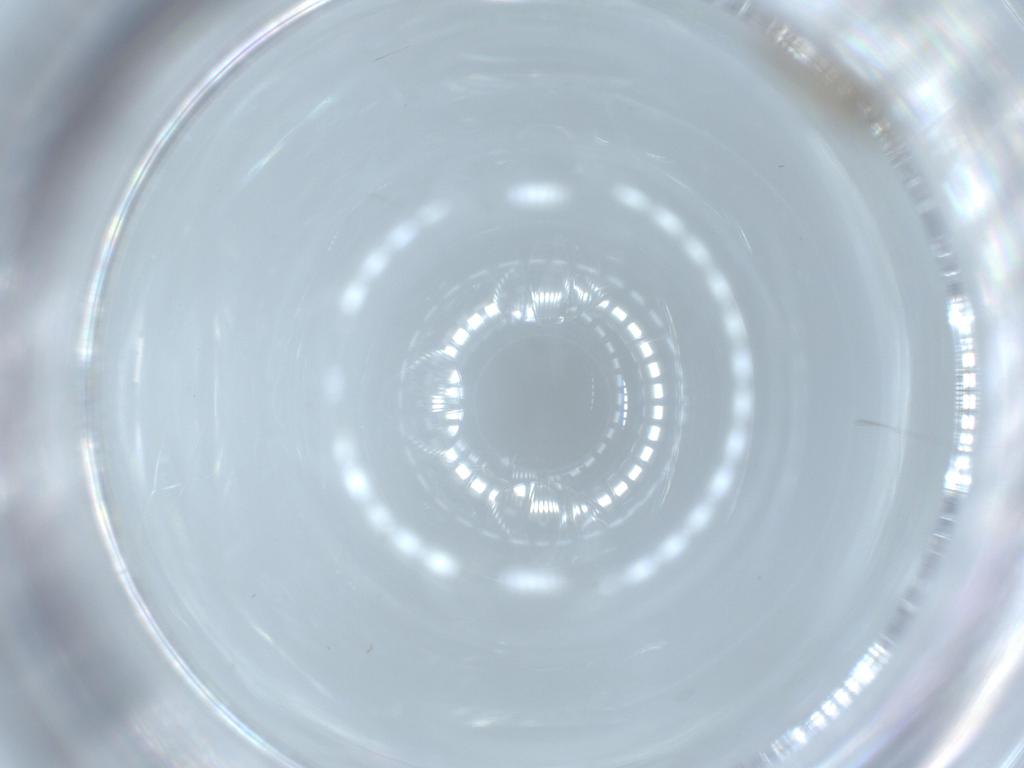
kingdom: Animalia
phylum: Arthropoda
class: Insecta
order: Diptera
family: Cecidomyiidae
